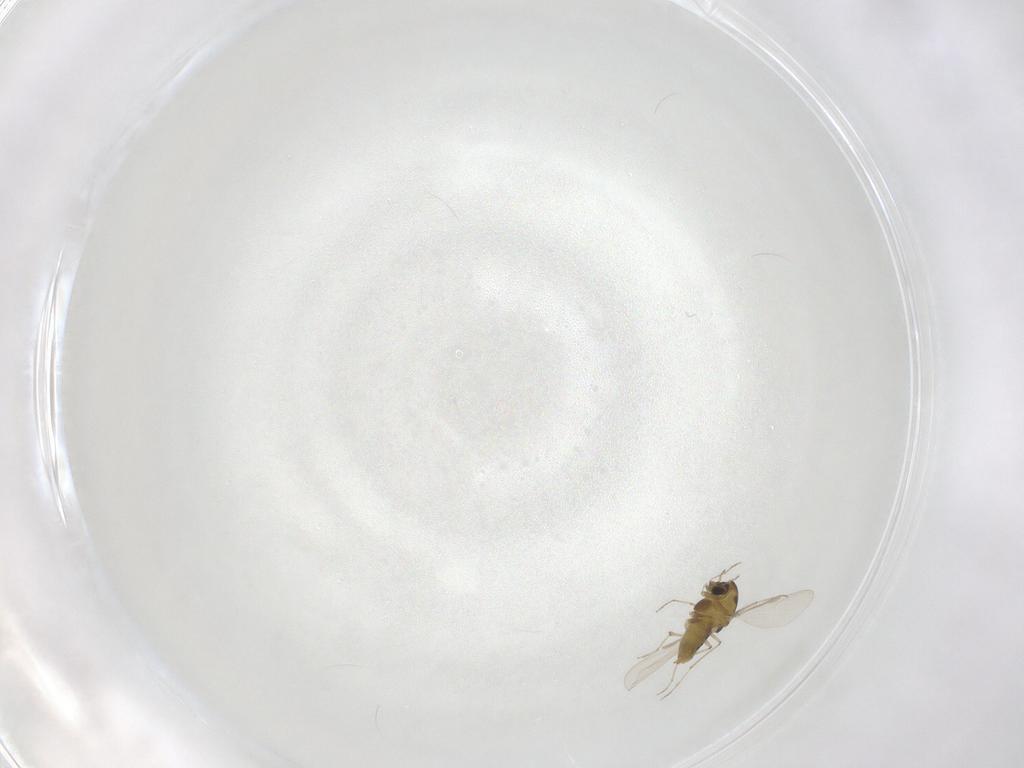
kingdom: Animalia
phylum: Arthropoda
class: Insecta
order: Diptera
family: Chironomidae
